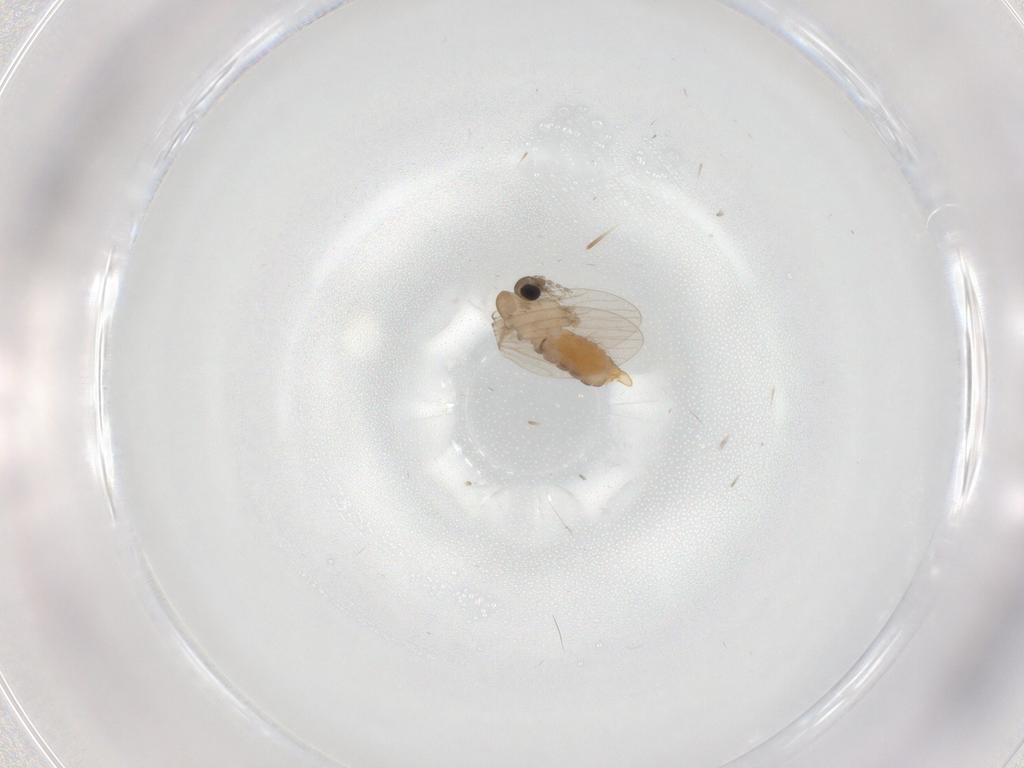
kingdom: Animalia
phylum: Arthropoda
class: Insecta
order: Diptera
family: Psychodidae
